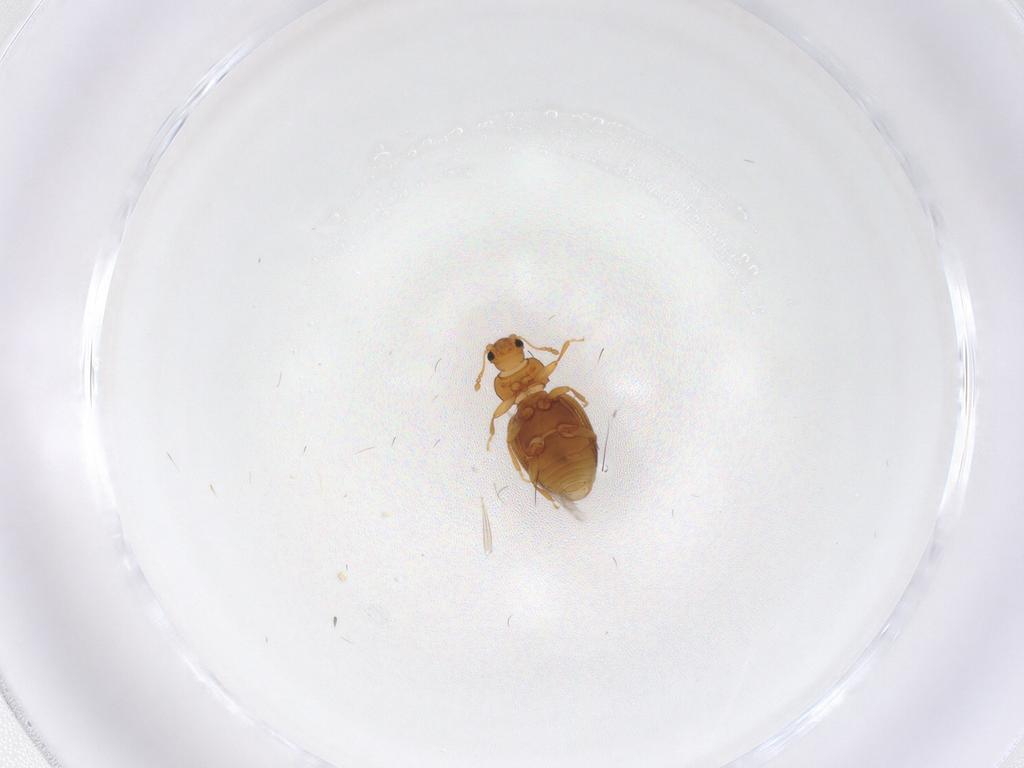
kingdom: Animalia
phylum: Arthropoda
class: Insecta
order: Coleoptera
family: Latridiidae
